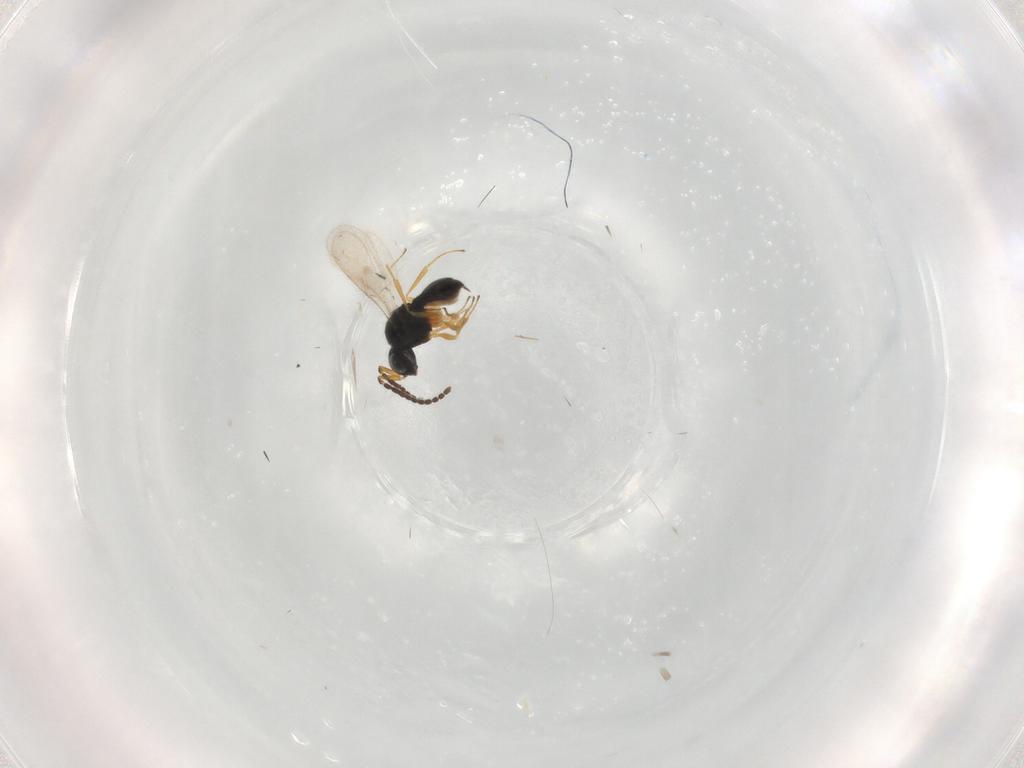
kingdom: Animalia
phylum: Arthropoda
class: Insecta
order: Hymenoptera
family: Scelionidae
